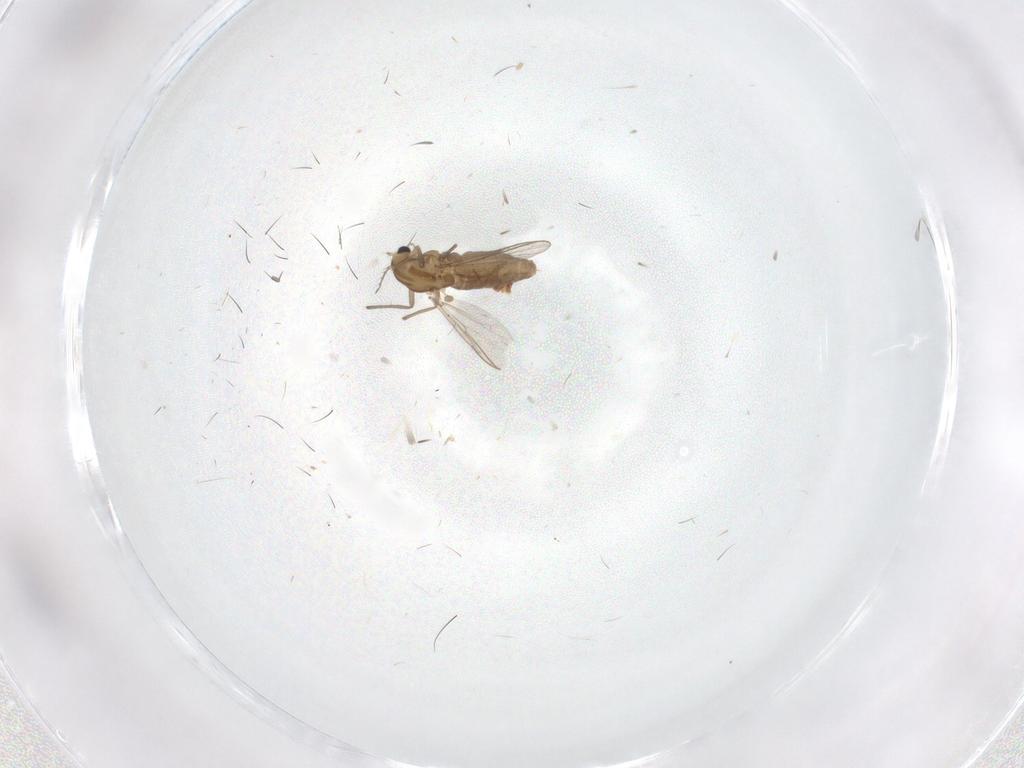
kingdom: Animalia
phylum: Arthropoda
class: Insecta
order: Diptera
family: Chironomidae
